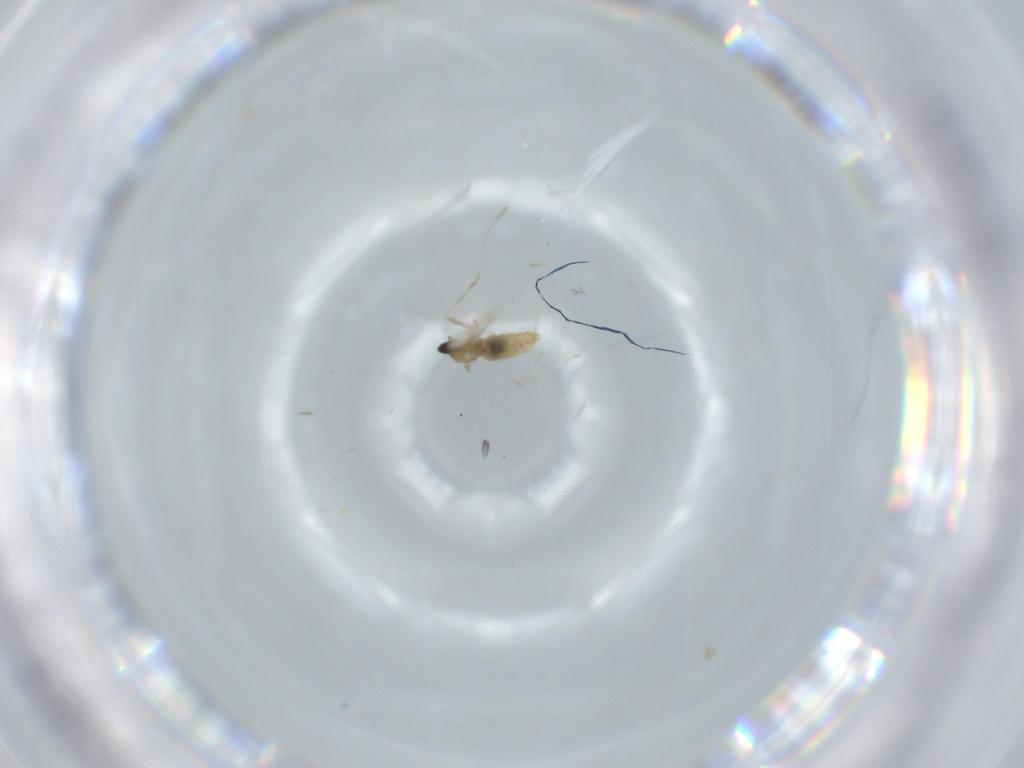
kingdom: Animalia
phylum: Arthropoda
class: Insecta
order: Diptera
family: Cecidomyiidae
